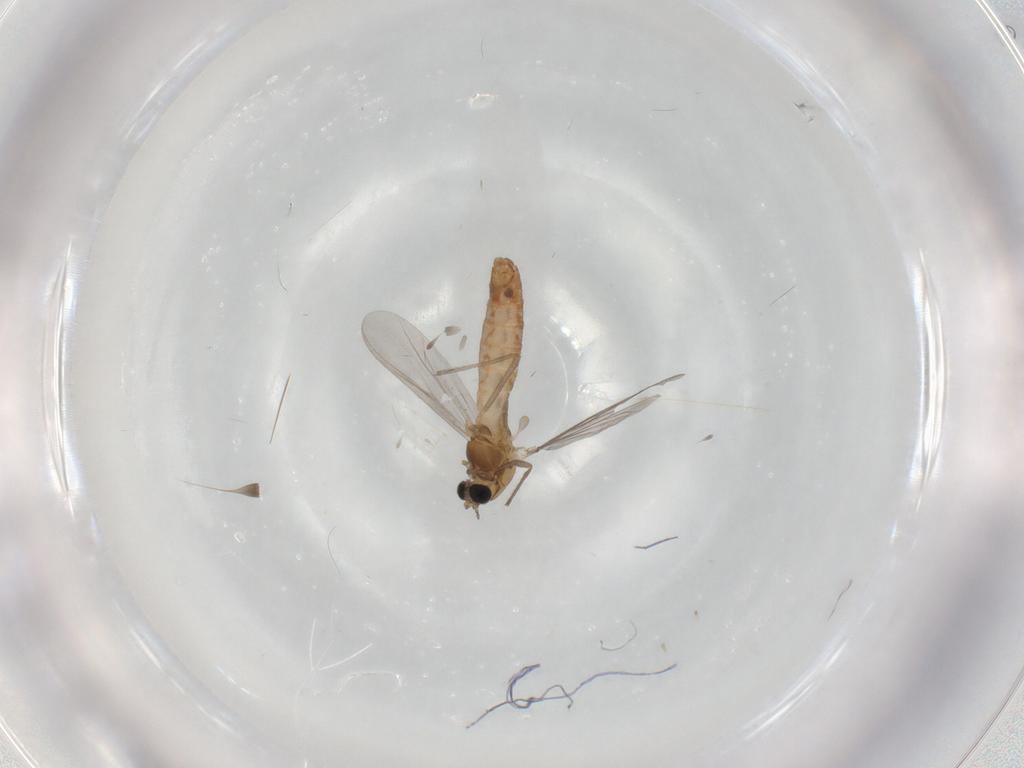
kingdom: Animalia
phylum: Arthropoda
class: Insecta
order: Diptera
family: Chironomidae
